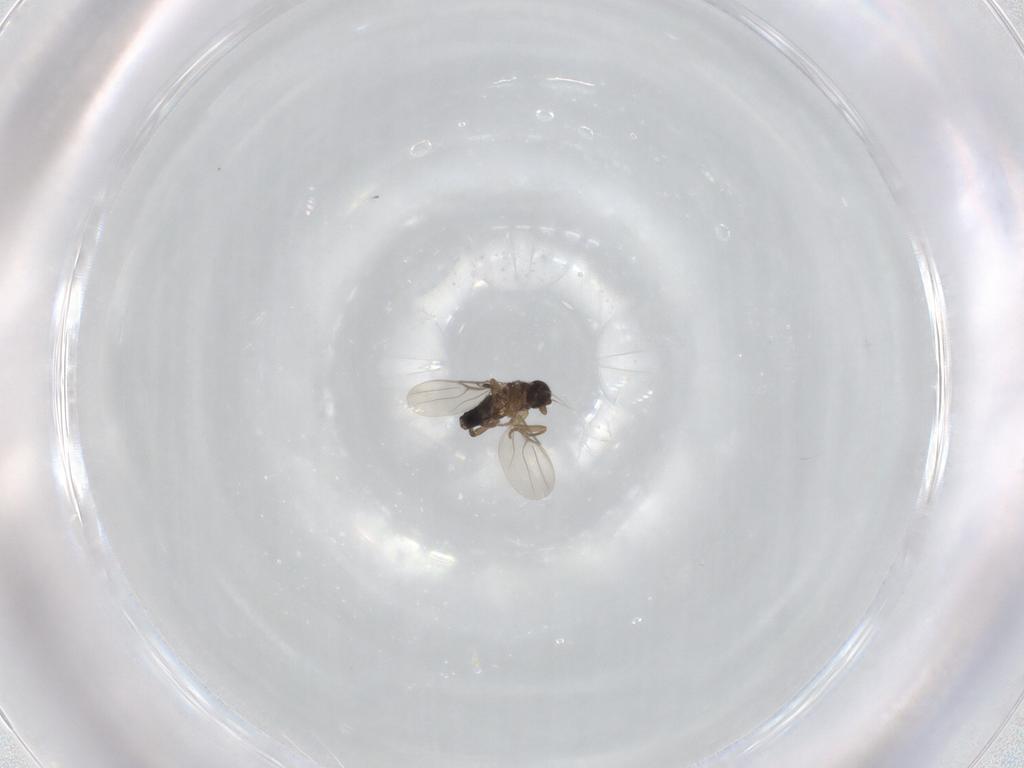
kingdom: Animalia
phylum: Arthropoda
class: Insecta
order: Diptera
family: Phoridae
